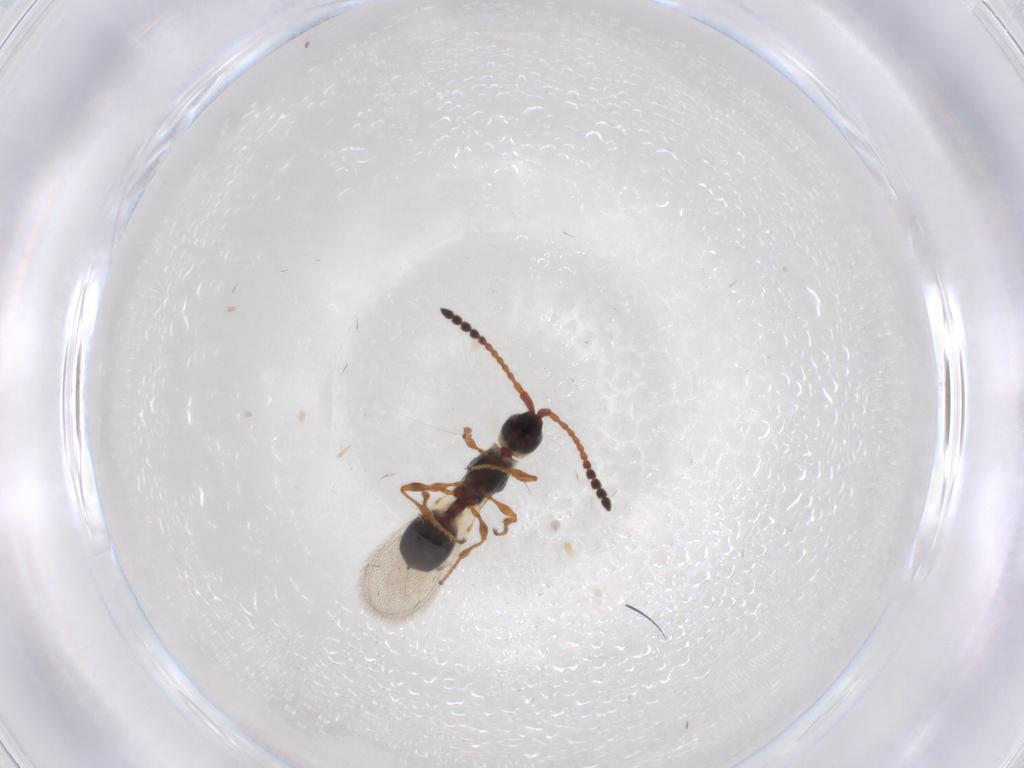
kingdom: Animalia
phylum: Arthropoda
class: Insecta
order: Hymenoptera
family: Diapriidae
